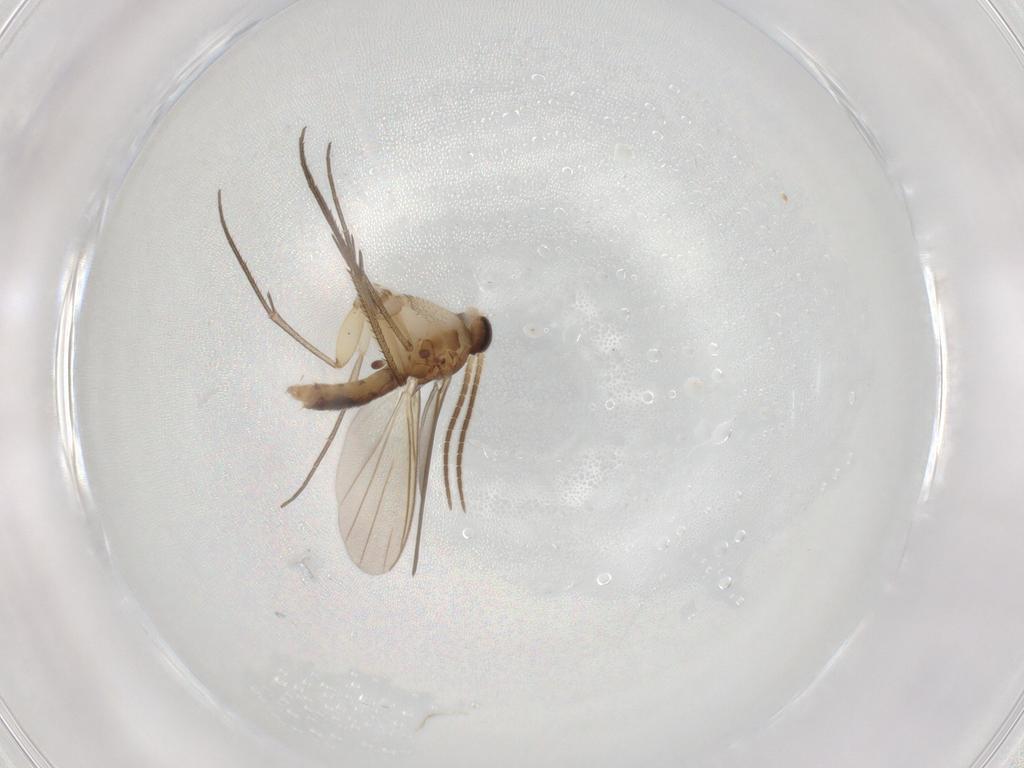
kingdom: Animalia
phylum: Arthropoda
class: Insecta
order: Diptera
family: Mycetophilidae
